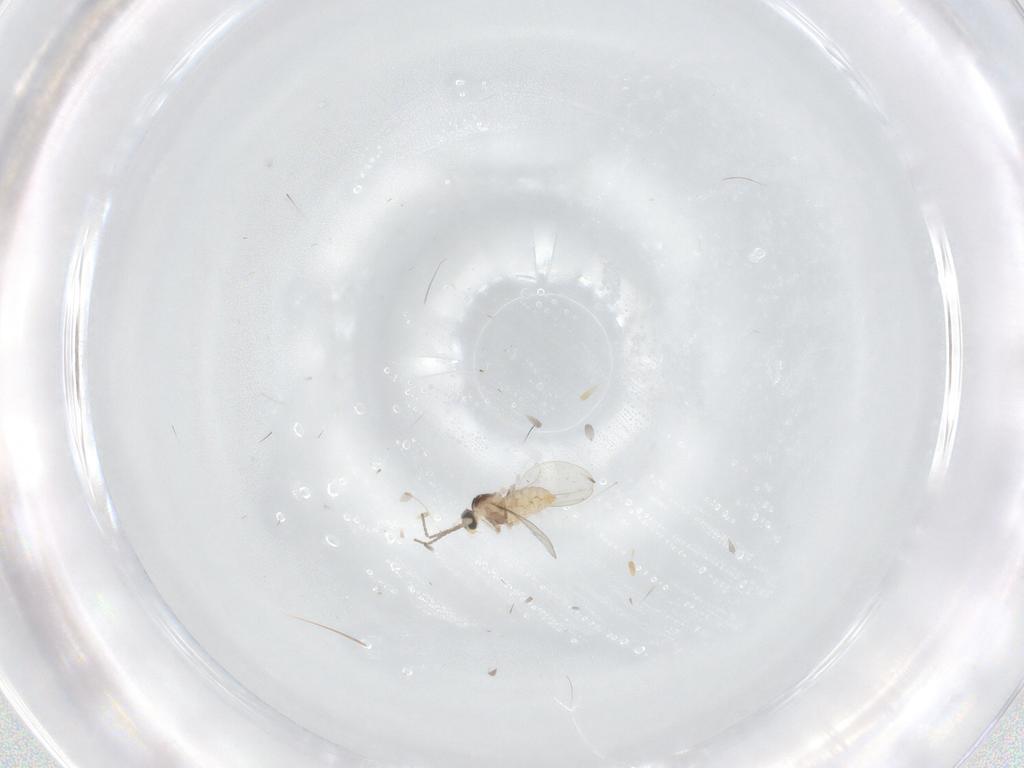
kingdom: Animalia
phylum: Arthropoda
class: Insecta
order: Diptera
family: Cecidomyiidae
